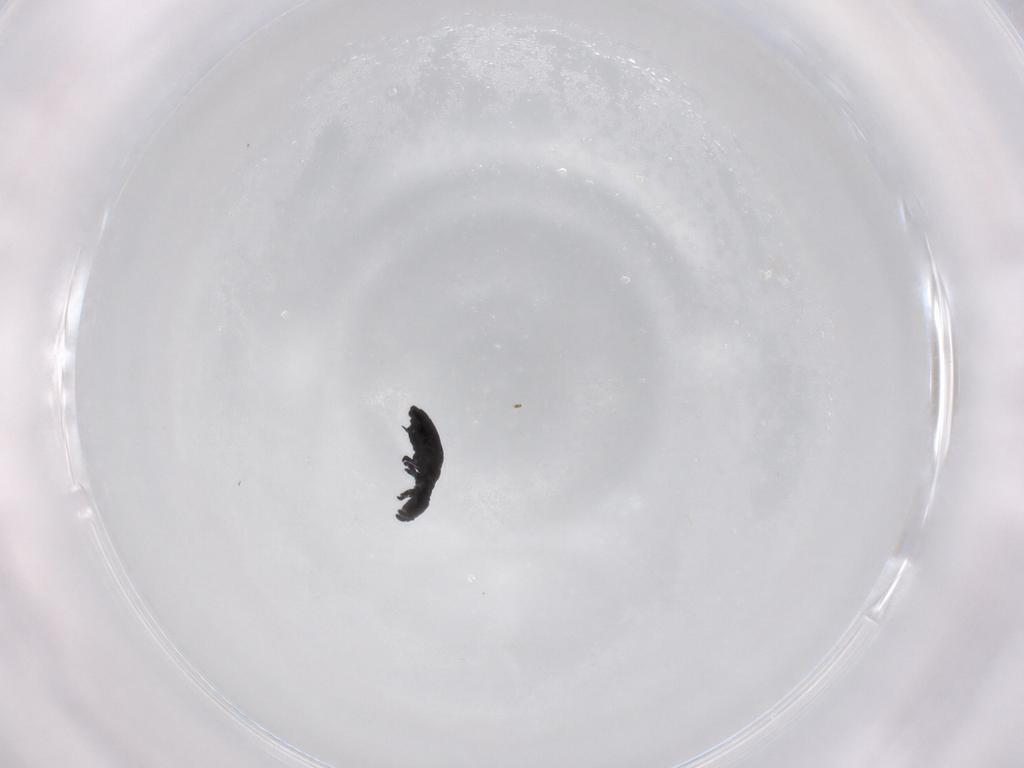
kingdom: Animalia
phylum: Arthropoda
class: Collembola
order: Poduromorpha
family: Hypogastruridae
